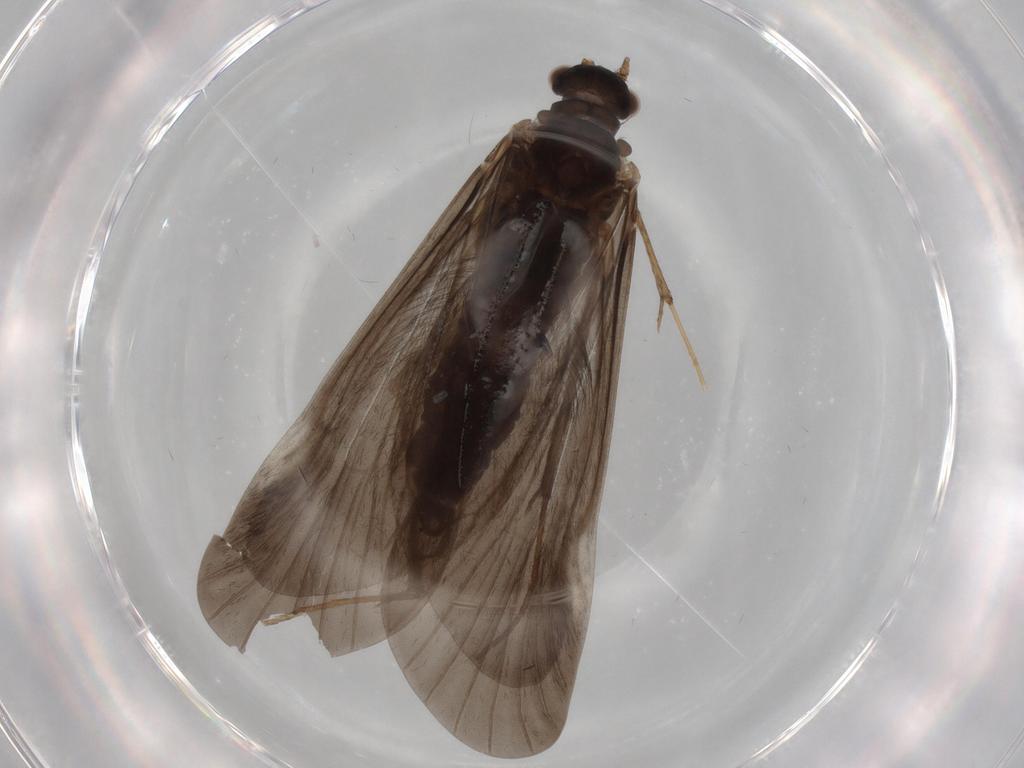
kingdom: Animalia
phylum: Arthropoda
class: Insecta
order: Trichoptera
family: Hydropsychidae
